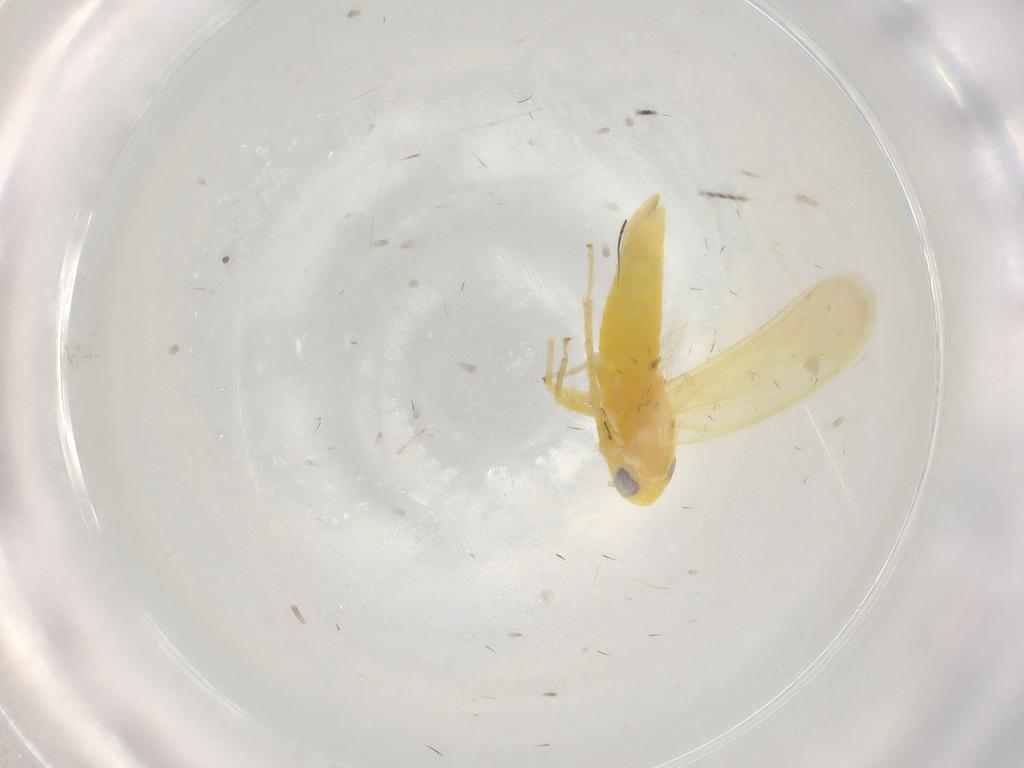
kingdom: Animalia
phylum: Arthropoda
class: Insecta
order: Hemiptera
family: Cicadellidae
